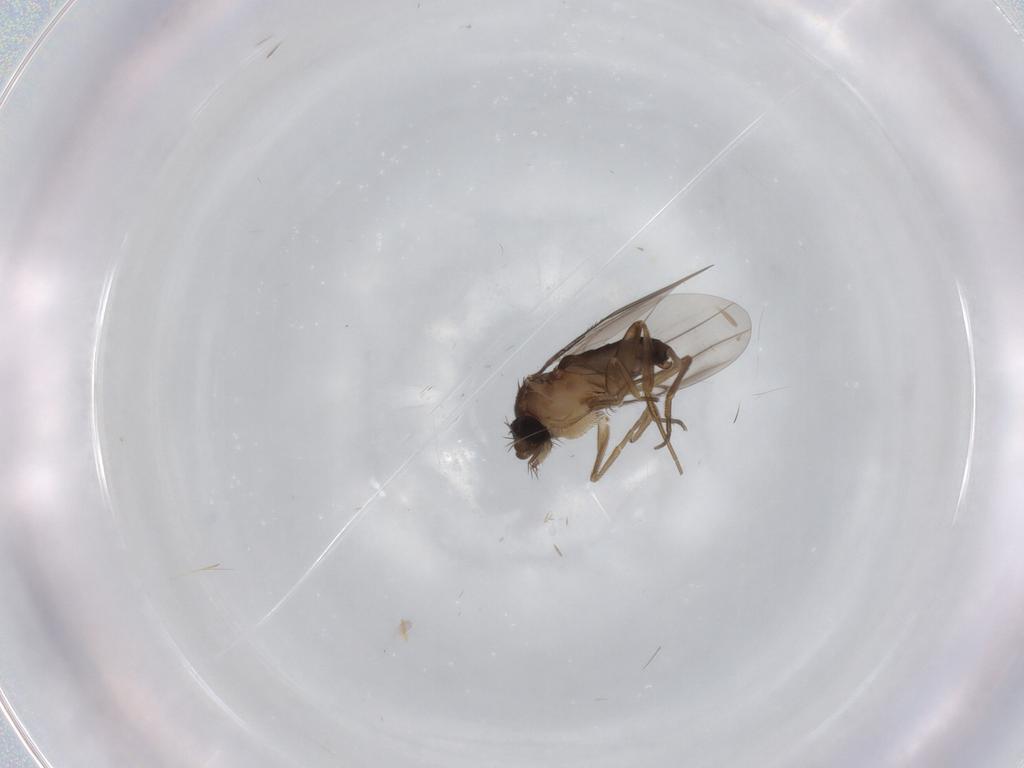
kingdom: Animalia
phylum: Arthropoda
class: Insecta
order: Diptera
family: Phoridae
